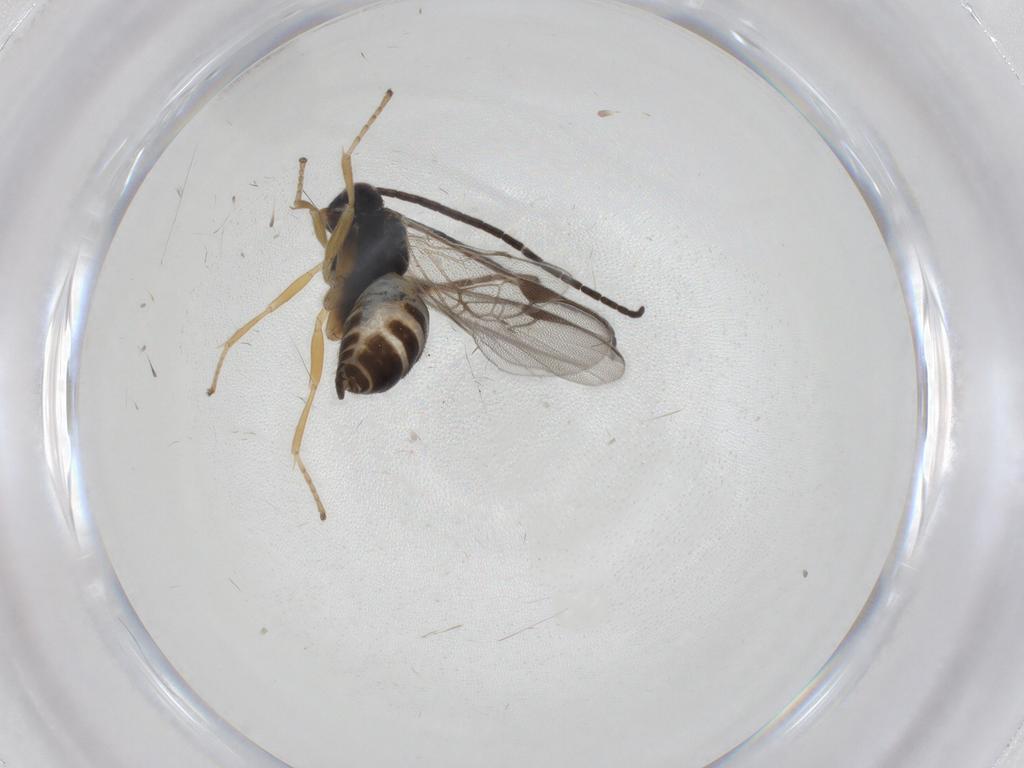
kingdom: Animalia
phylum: Arthropoda
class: Insecta
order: Hymenoptera
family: Braconidae
